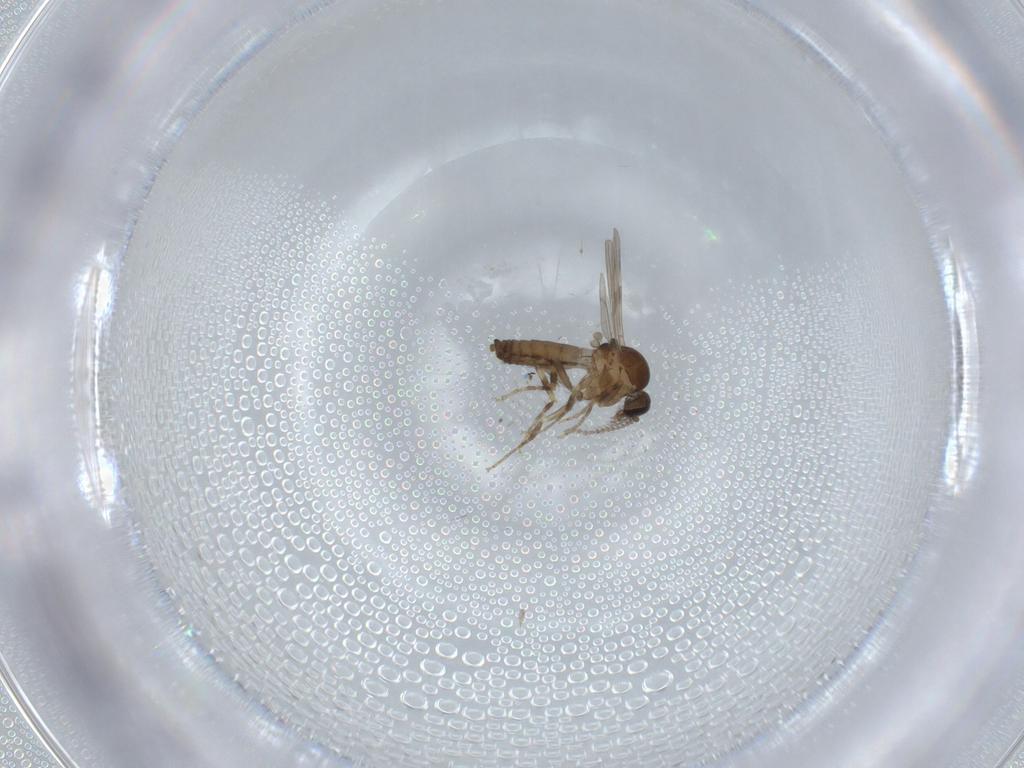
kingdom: Animalia
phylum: Arthropoda
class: Insecta
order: Diptera
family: Ceratopogonidae
